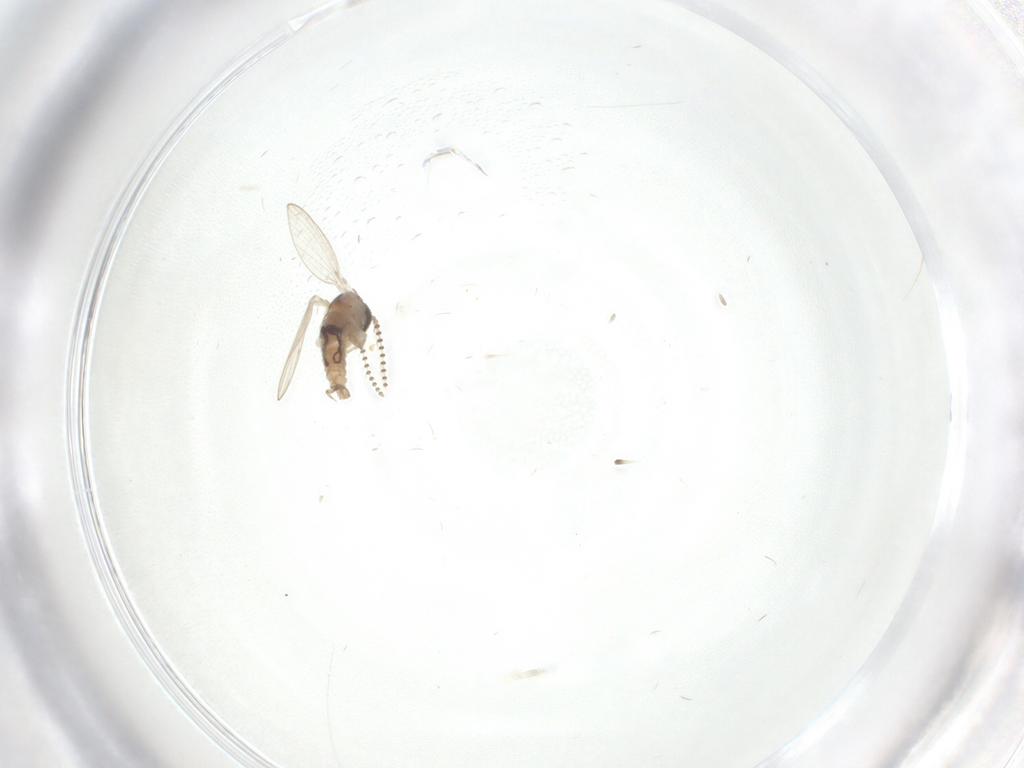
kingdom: Animalia
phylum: Arthropoda
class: Insecta
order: Diptera
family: Psychodidae
